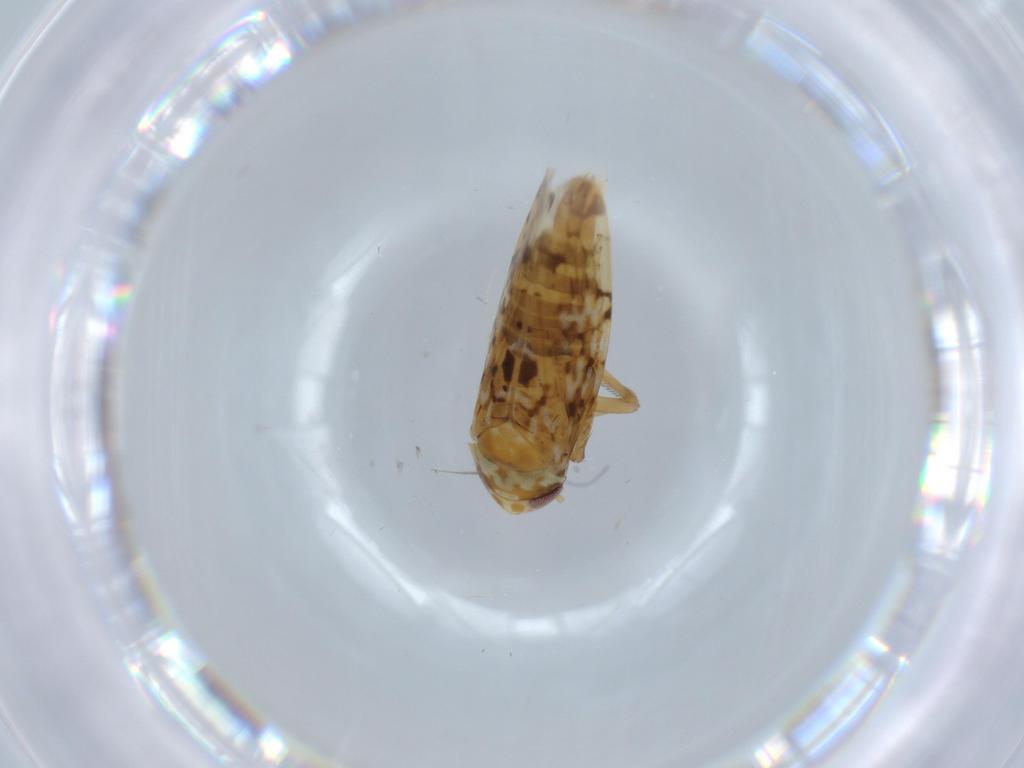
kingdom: Animalia
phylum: Arthropoda
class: Insecta
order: Hemiptera
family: Cicadellidae
